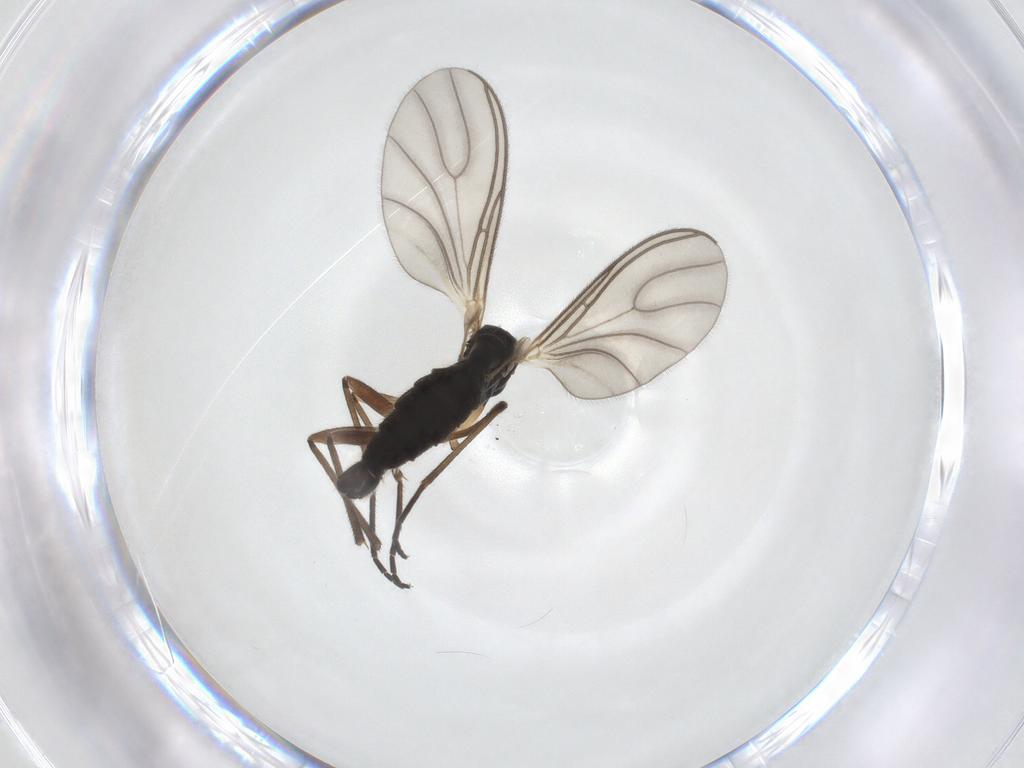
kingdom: Animalia
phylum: Arthropoda
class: Insecta
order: Diptera
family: Sciaridae
